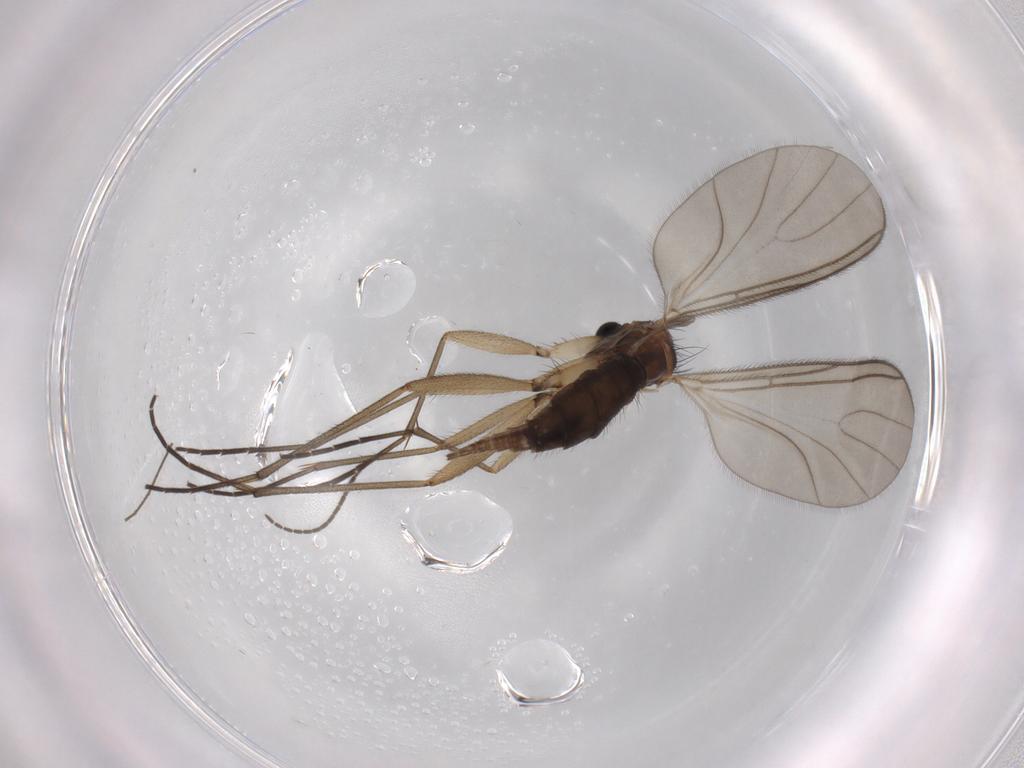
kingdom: Animalia
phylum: Arthropoda
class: Insecta
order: Diptera
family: Sciaridae
